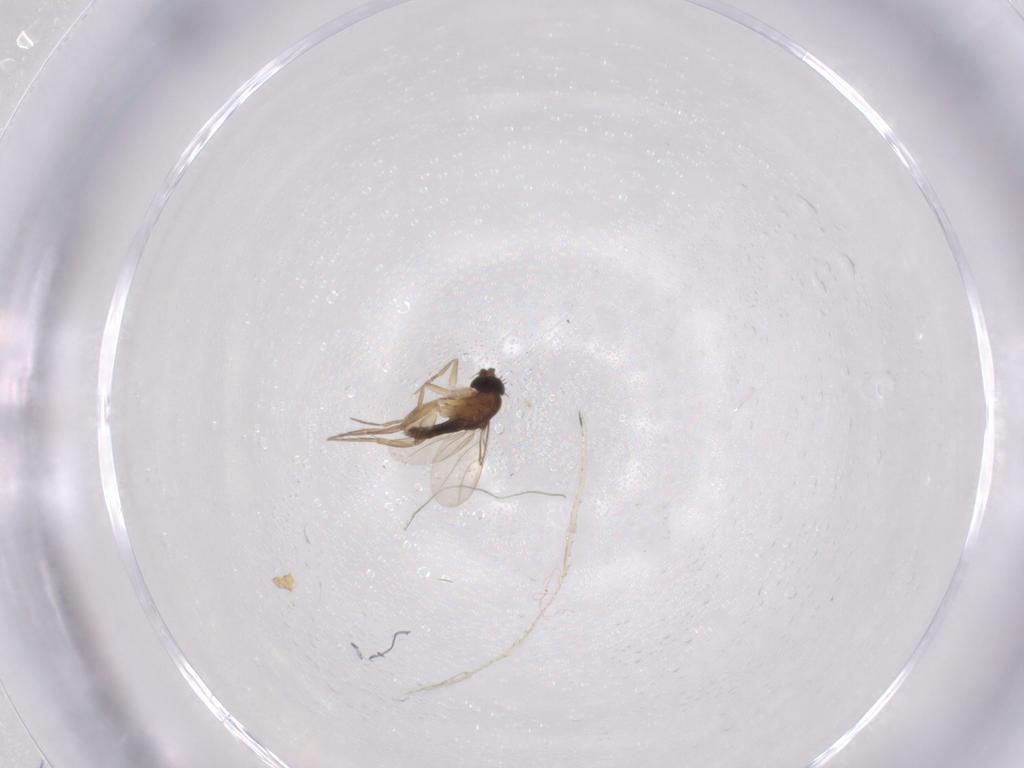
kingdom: Animalia
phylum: Arthropoda
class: Insecta
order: Diptera
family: Phoridae
